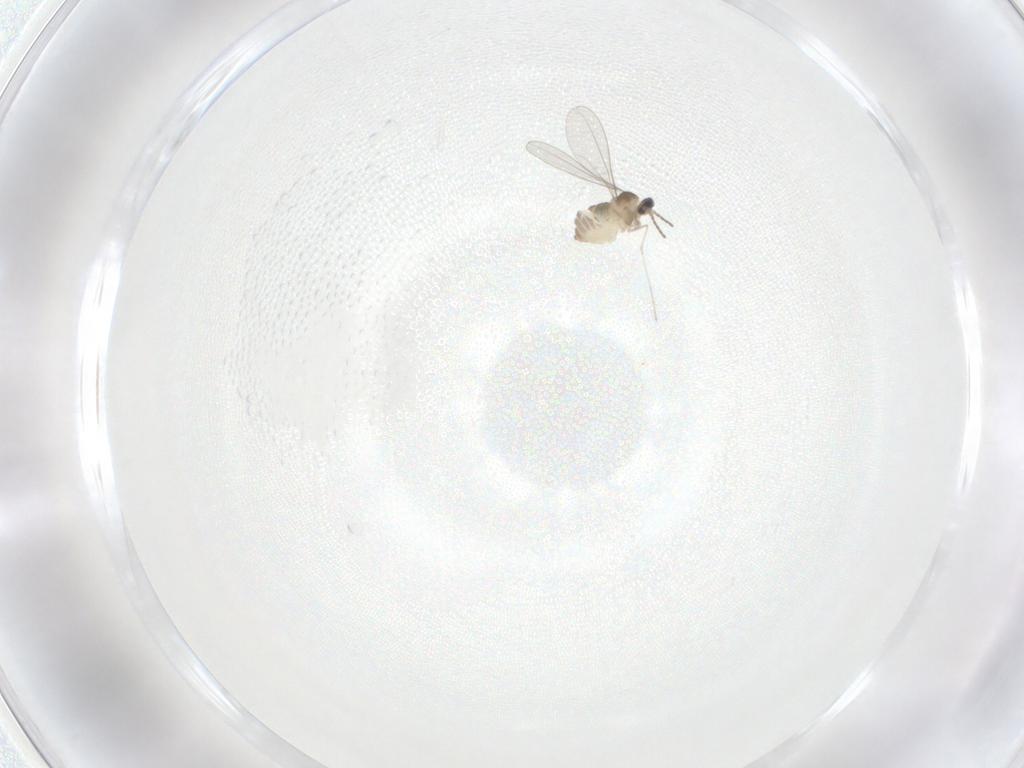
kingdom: Animalia
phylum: Arthropoda
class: Insecta
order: Diptera
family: Cecidomyiidae
